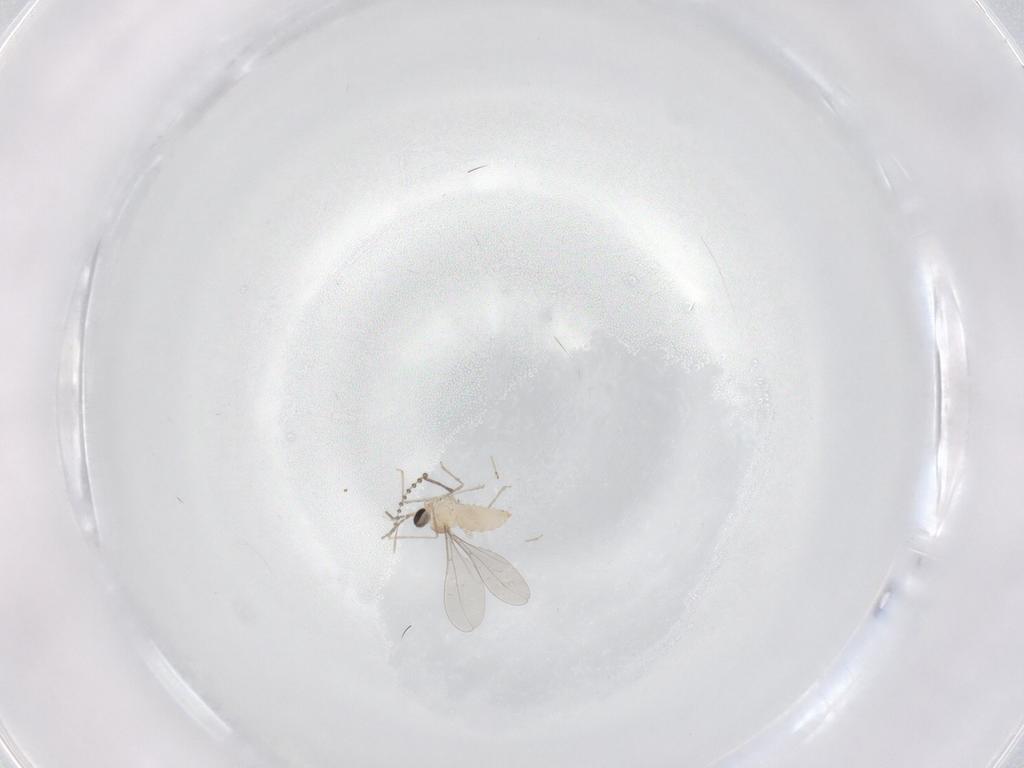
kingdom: Animalia
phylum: Arthropoda
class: Insecta
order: Diptera
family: Cecidomyiidae
